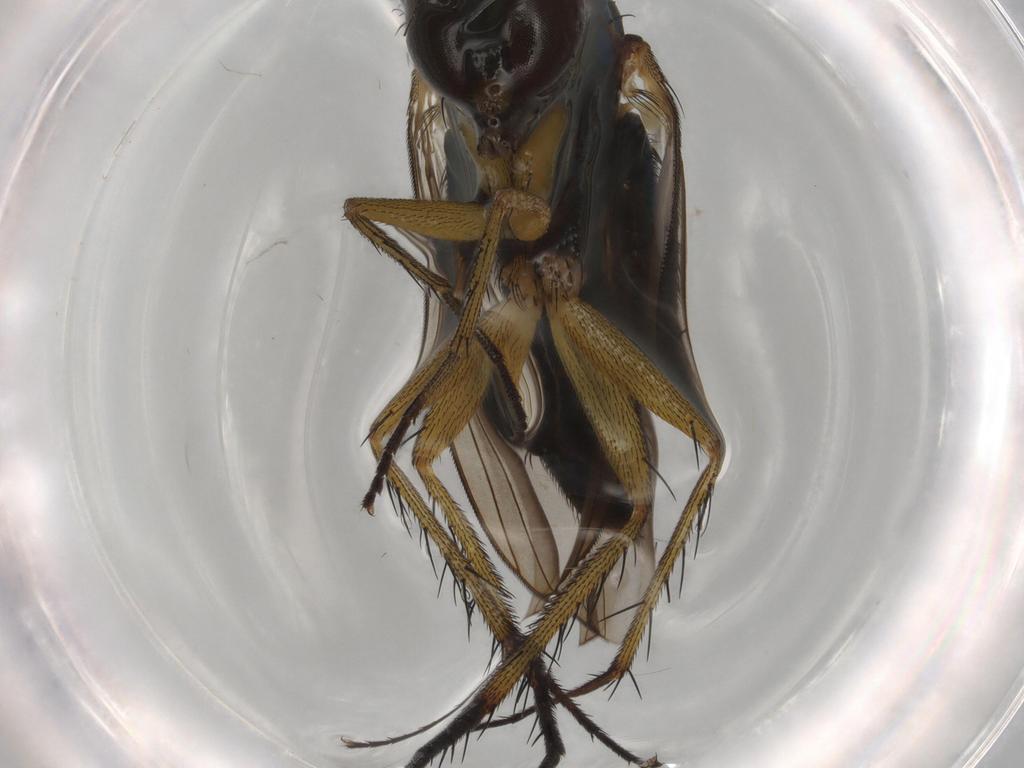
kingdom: Animalia
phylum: Arthropoda
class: Insecta
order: Diptera
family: Dolichopodidae
